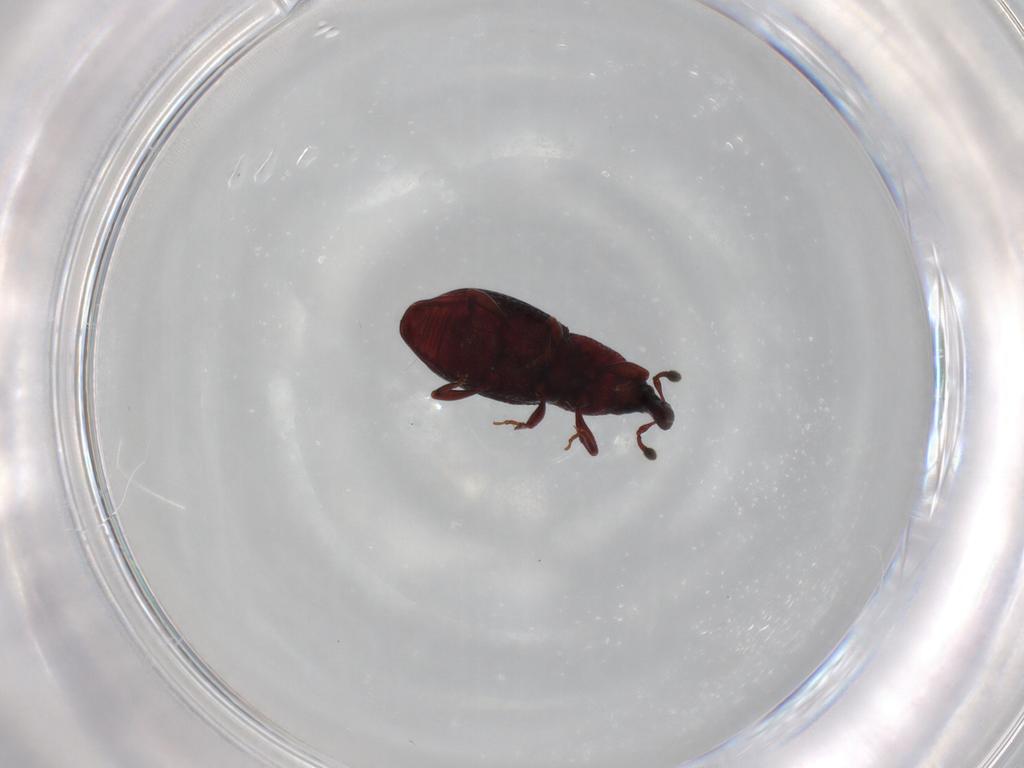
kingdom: Animalia
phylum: Arthropoda
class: Insecta
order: Coleoptera
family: Chrysomelidae
